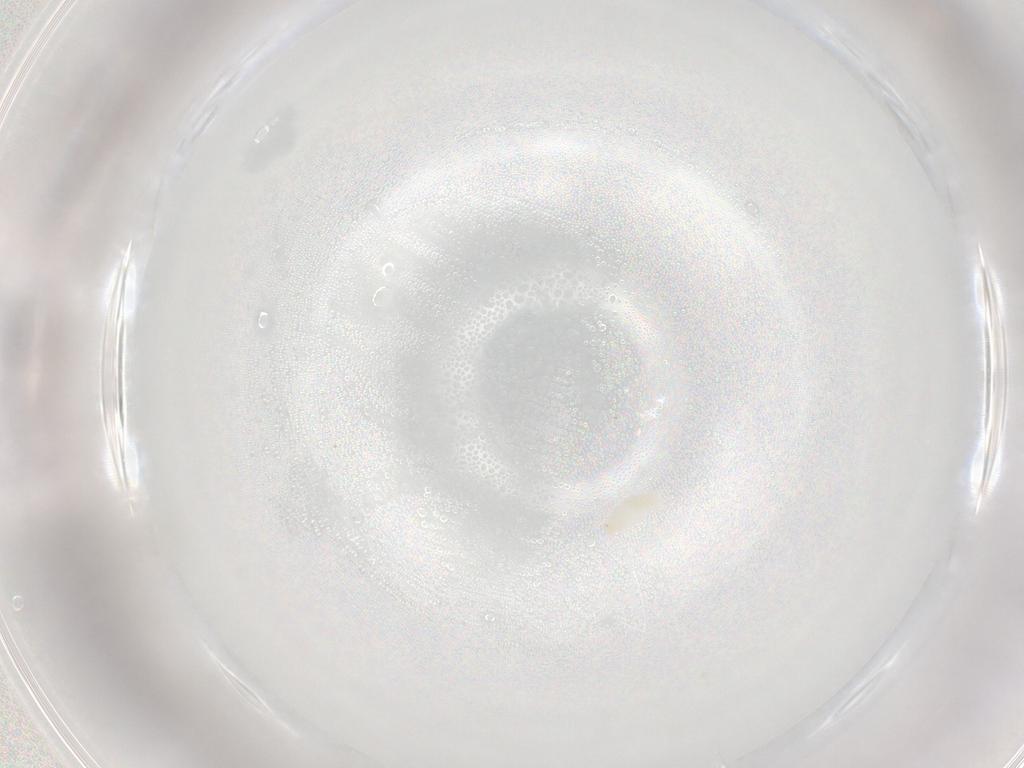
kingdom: Animalia
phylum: Arthropoda
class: Insecta
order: Diptera
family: Cecidomyiidae
